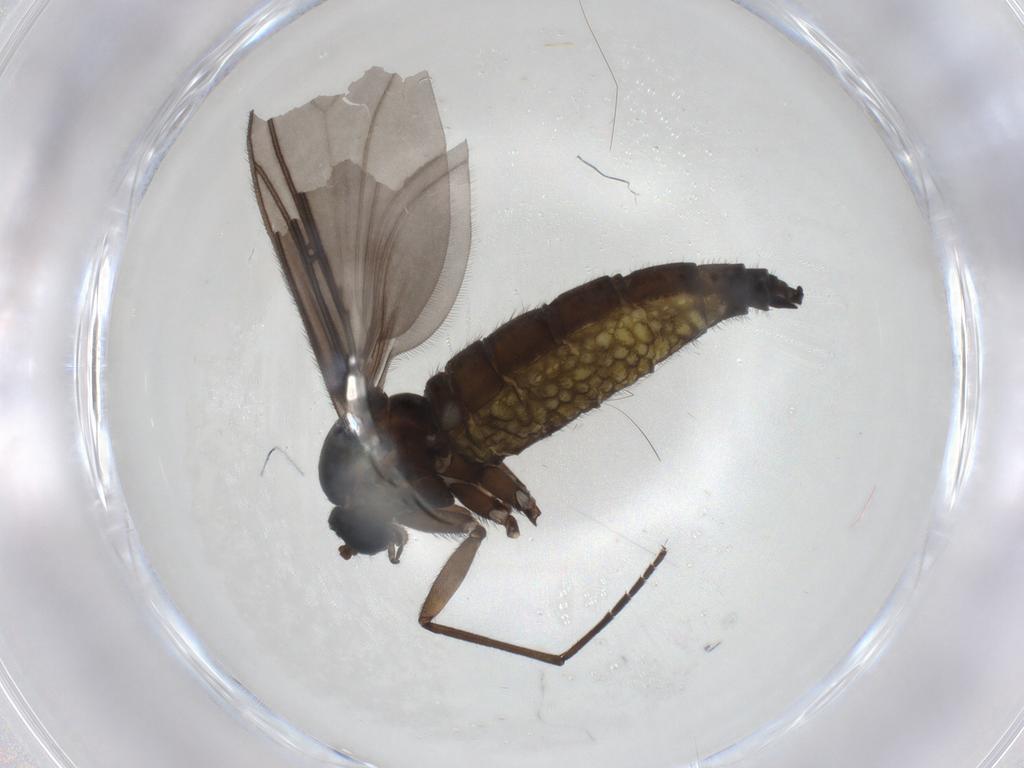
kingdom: Animalia
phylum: Arthropoda
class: Insecta
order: Diptera
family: Sciaridae
